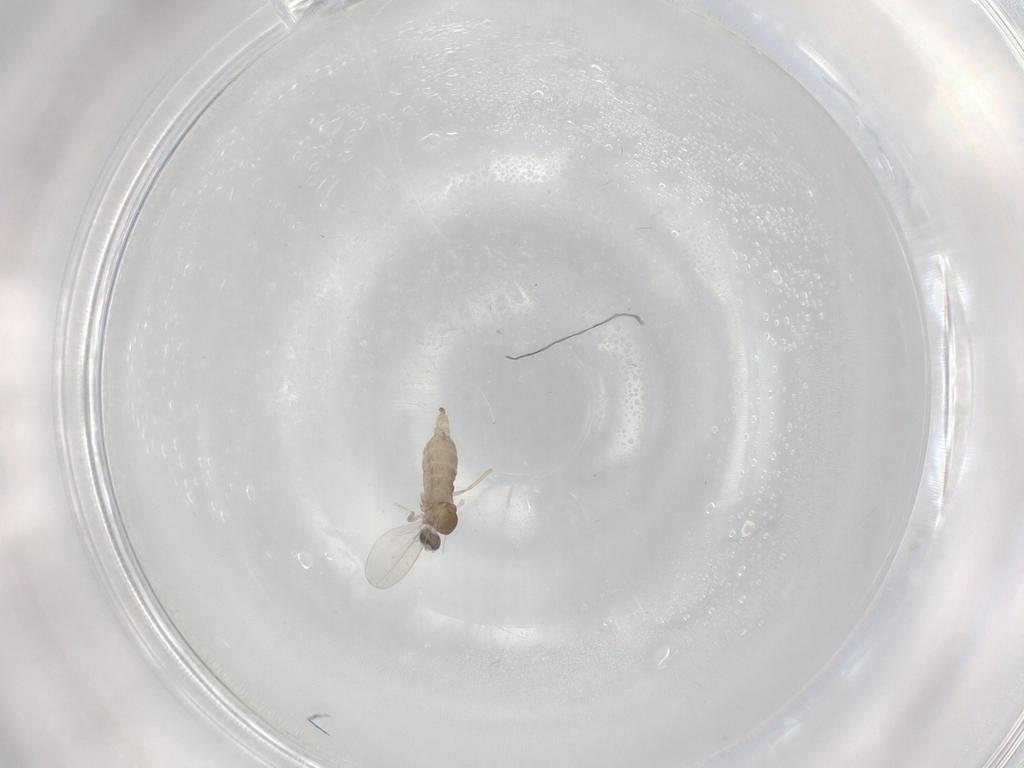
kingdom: Animalia
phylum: Arthropoda
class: Insecta
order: Diptera
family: Cecidomyiidae
